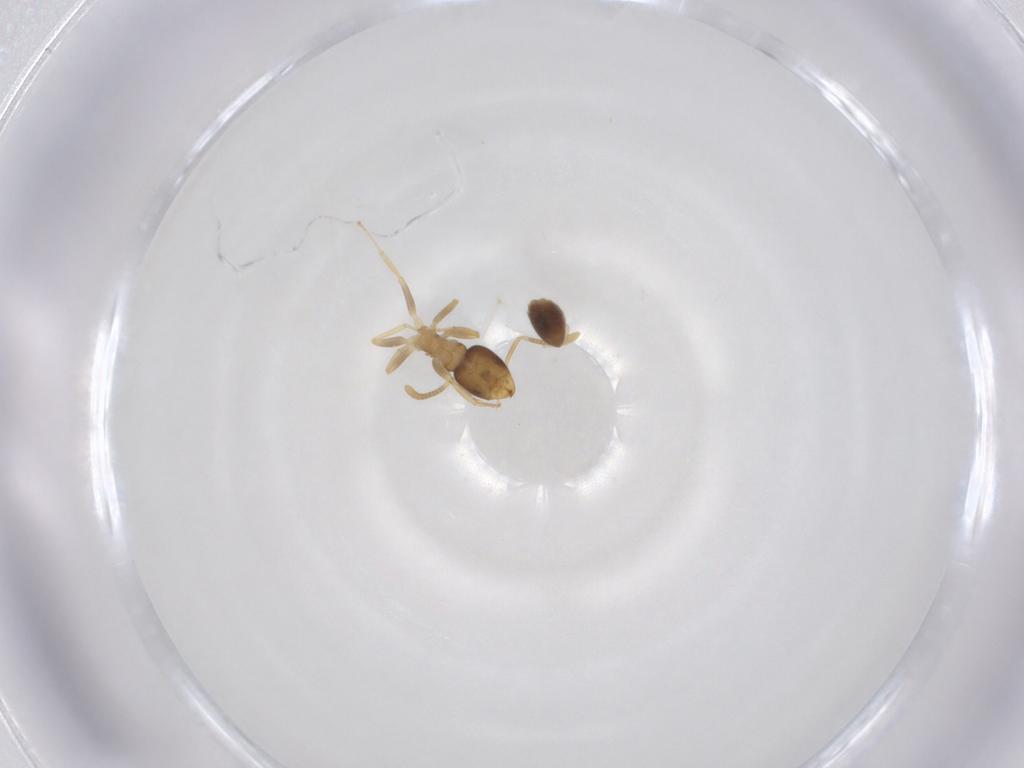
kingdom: Animalia
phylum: Arthropoda
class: Insecta
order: Hymenoptera
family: Formicidae
